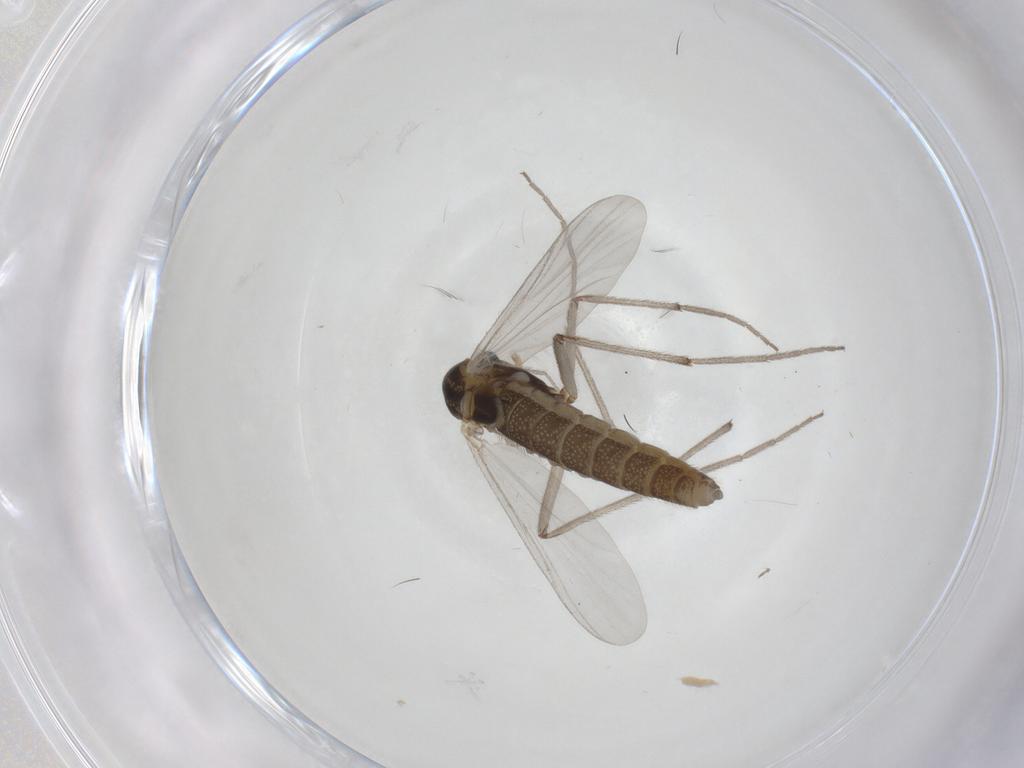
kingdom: Animalia
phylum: Arthropoda
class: Insecta
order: Diptera
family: Chironomidae
